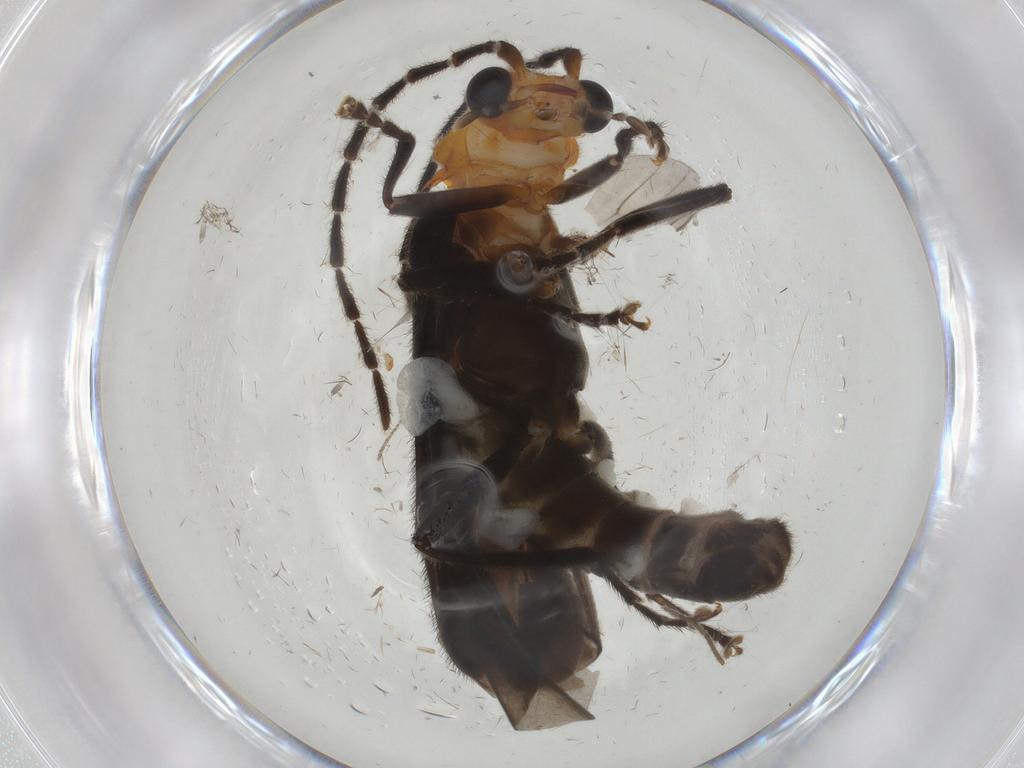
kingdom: Animalia
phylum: Arthropoda
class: Insecta
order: Coleoptera
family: Cantharidae
